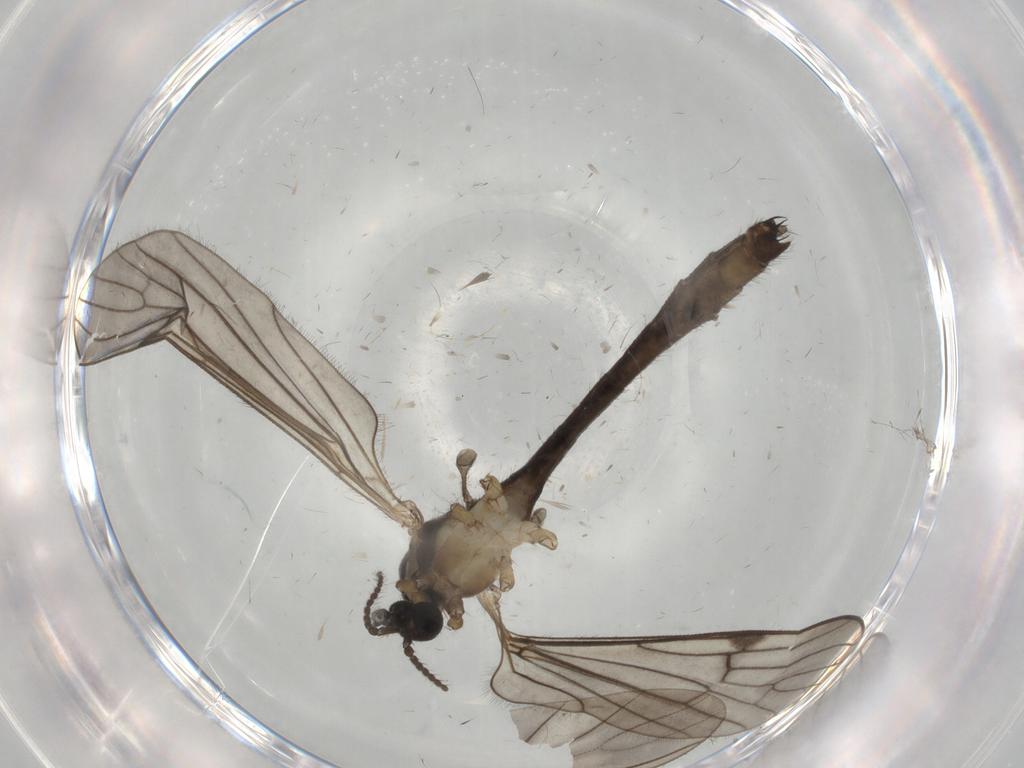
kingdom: Animalia
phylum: Arthropoda
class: Insecta
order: Diptera
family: Limoniidae
